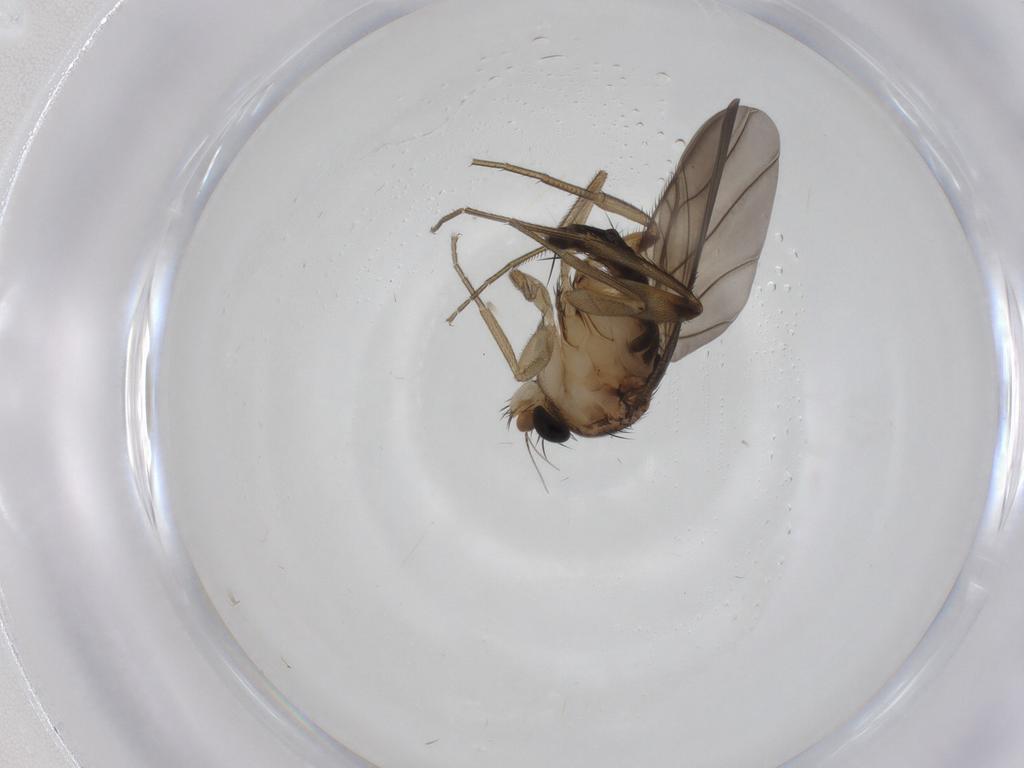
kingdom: Animalia
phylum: Arthropoda
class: Insecta
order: Diptera
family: Phoridae
